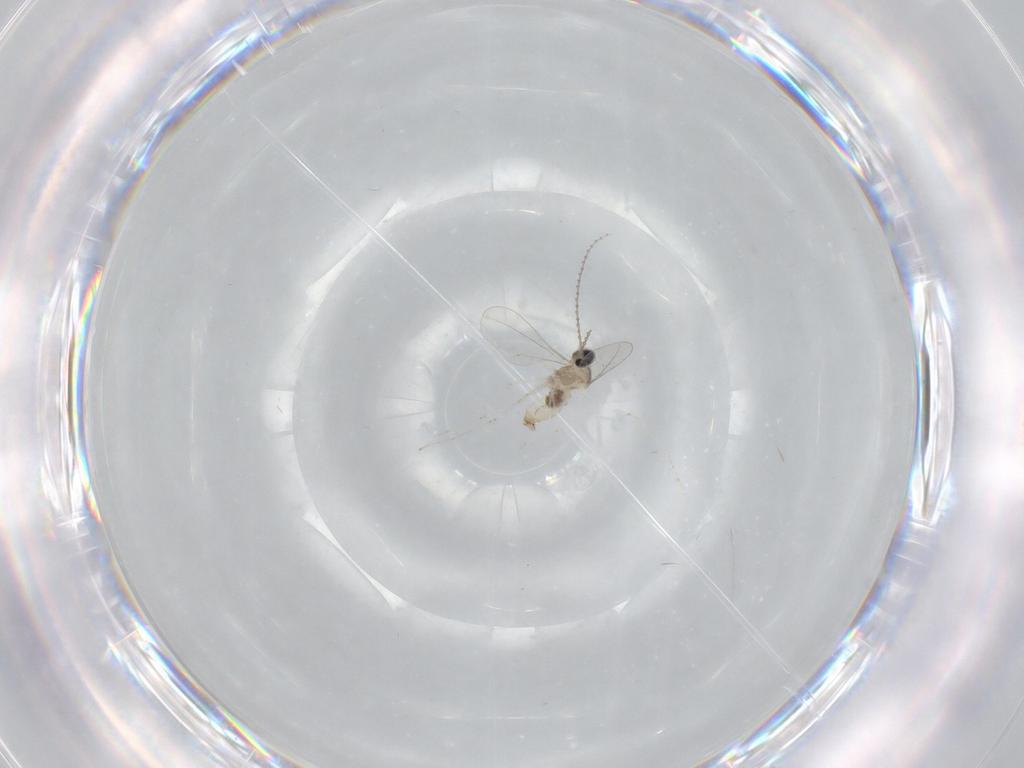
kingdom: Animalia
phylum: Arthropoda
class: Insecta
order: Diptera
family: Cecidomyiidae
